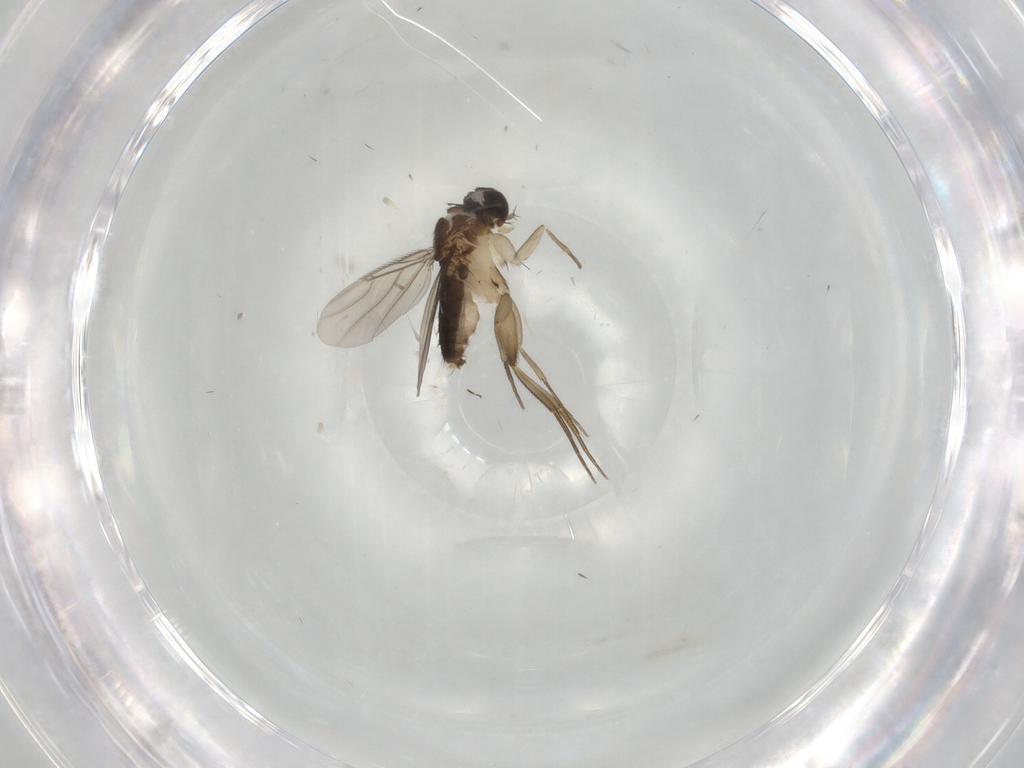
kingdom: Animalia
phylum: Arthropoda
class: Insecta
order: Diptera
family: Phoridae
